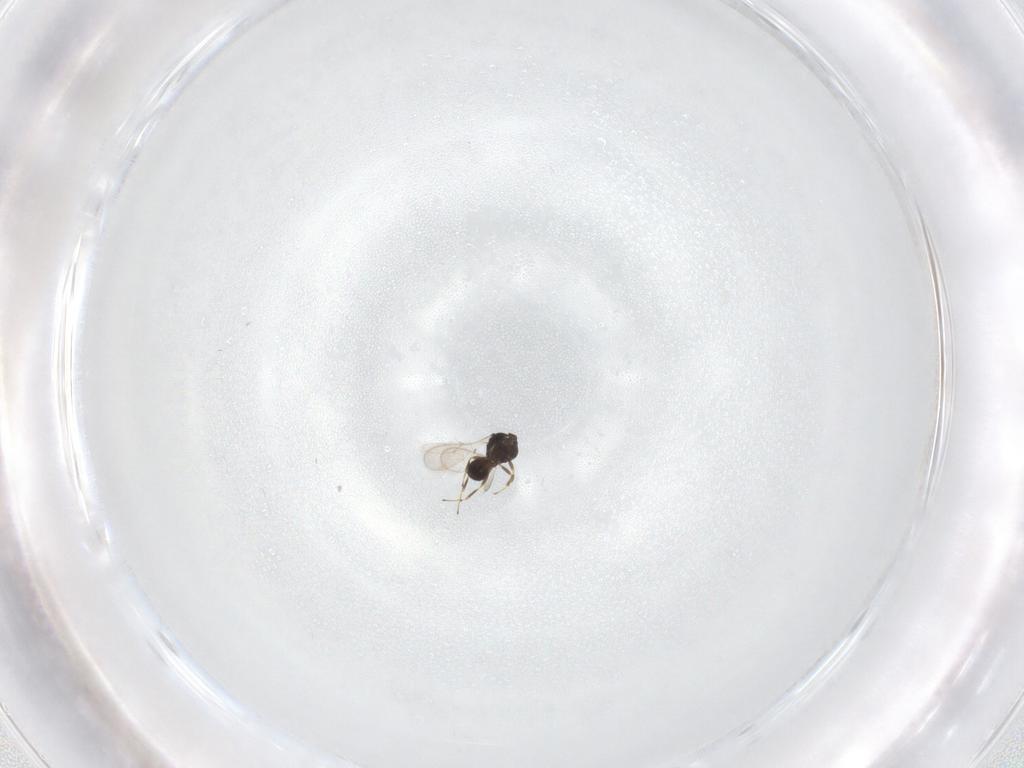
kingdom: Animalia
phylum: Arthropoda
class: Insecta
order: Hymenoptera
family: Scelionidae
